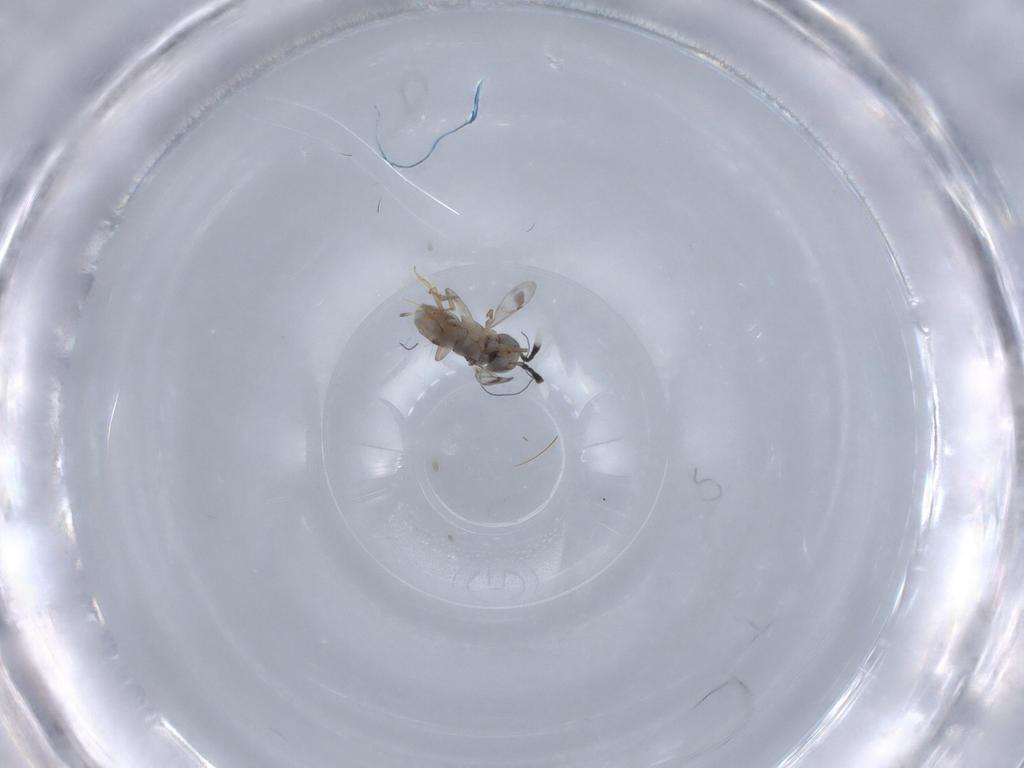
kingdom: Animalia
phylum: Arthropoda
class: Insecta
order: Hymenoptera
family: Encyrtidae
